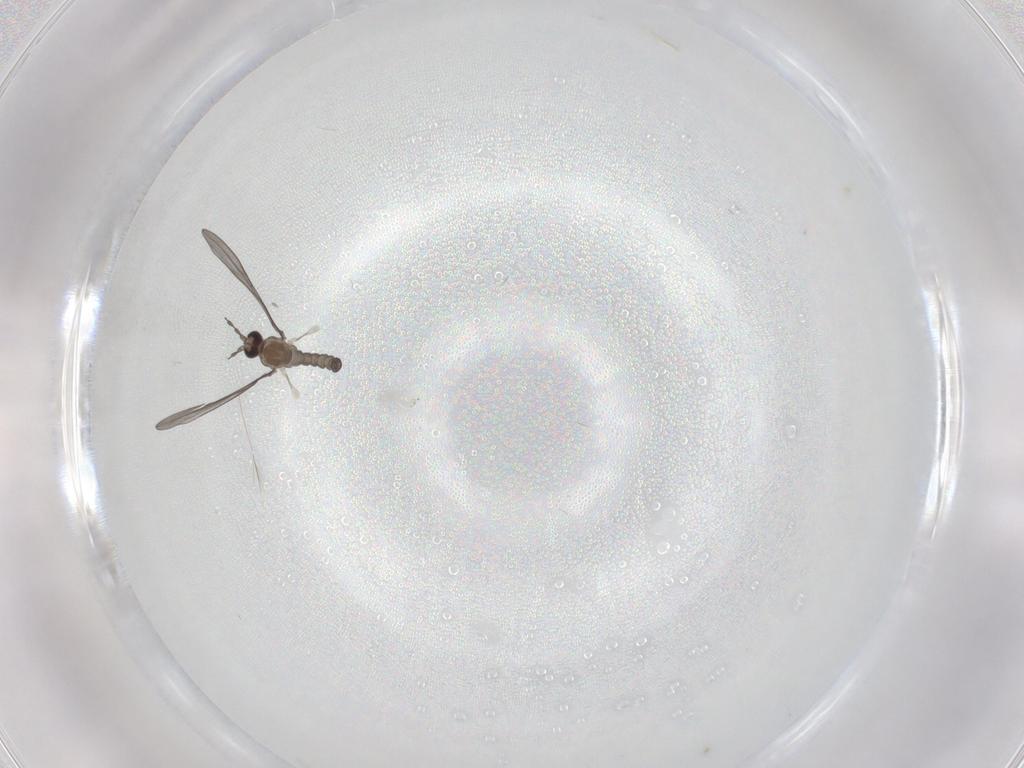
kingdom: Animalia
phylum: Arthropoda
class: Insecta
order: Diptera
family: Cecidomyiidae
